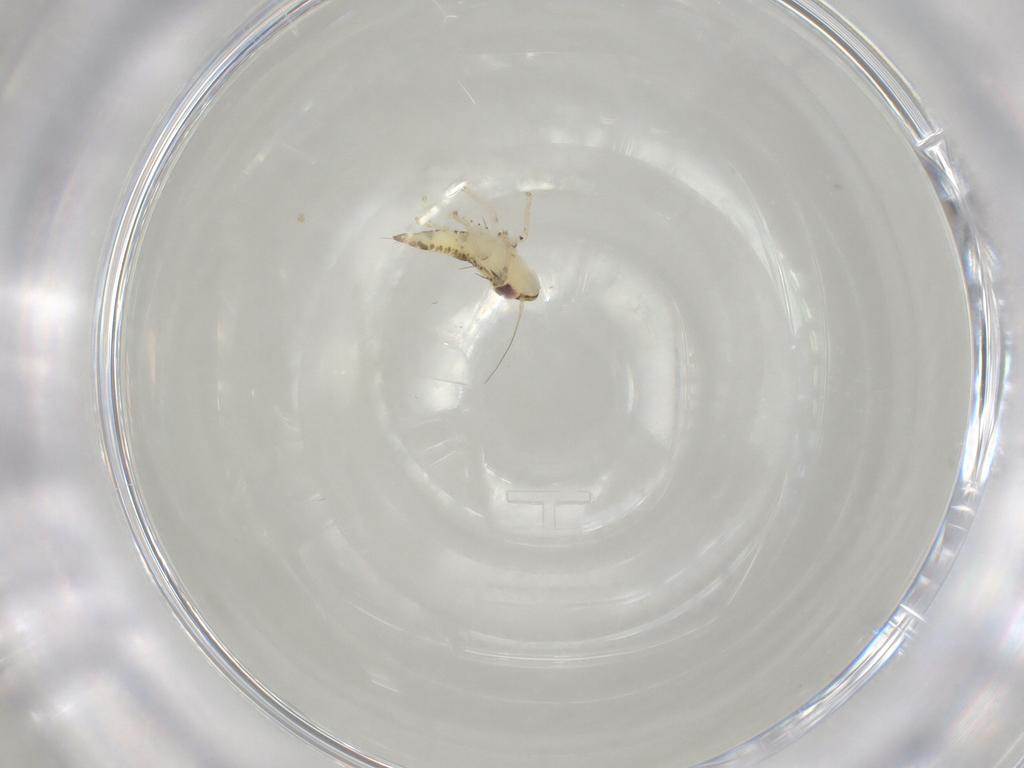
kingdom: Animalia
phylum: Arthropoda
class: Insecta
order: Hemiptera
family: Cicadellidae
